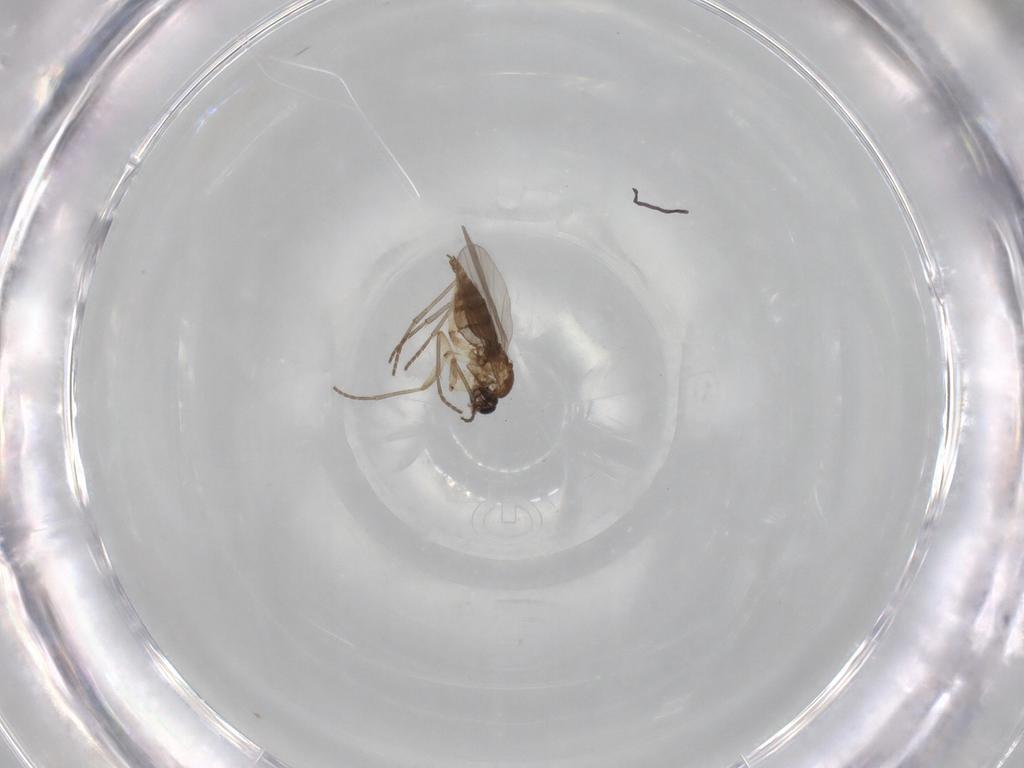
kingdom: Animalia
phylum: Arthropoda
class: Insecta
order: Diptera
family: Sciaridae
